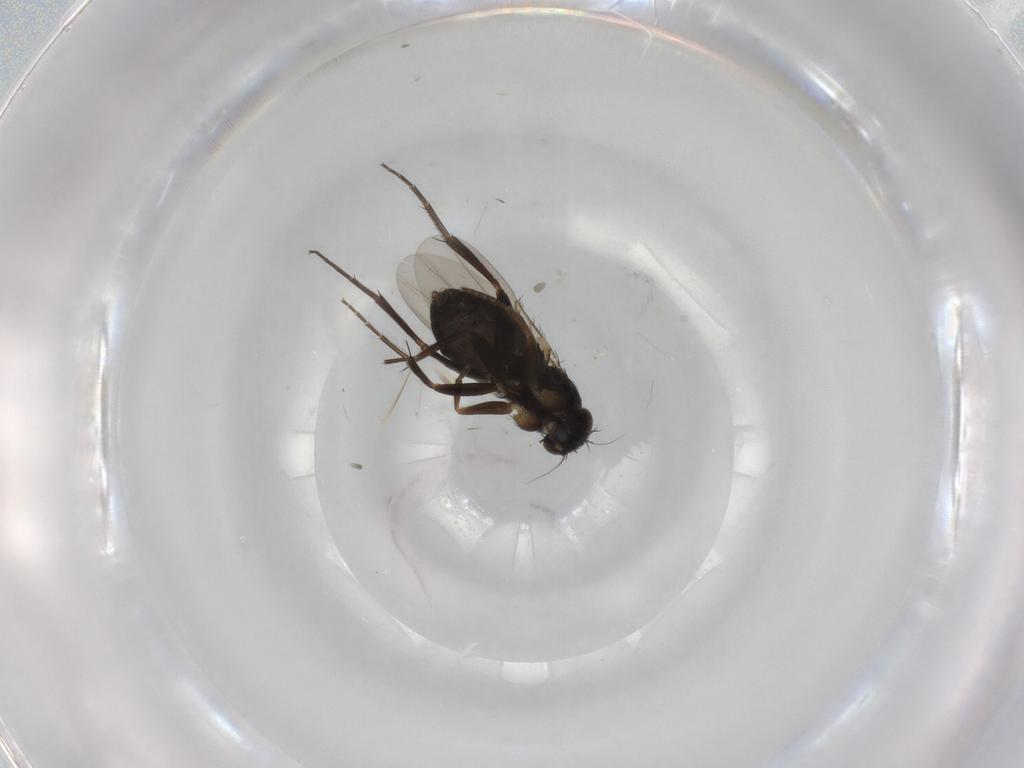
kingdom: Animalia
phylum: Arthropoda
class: Insecta
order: Diptera
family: Phoridae
